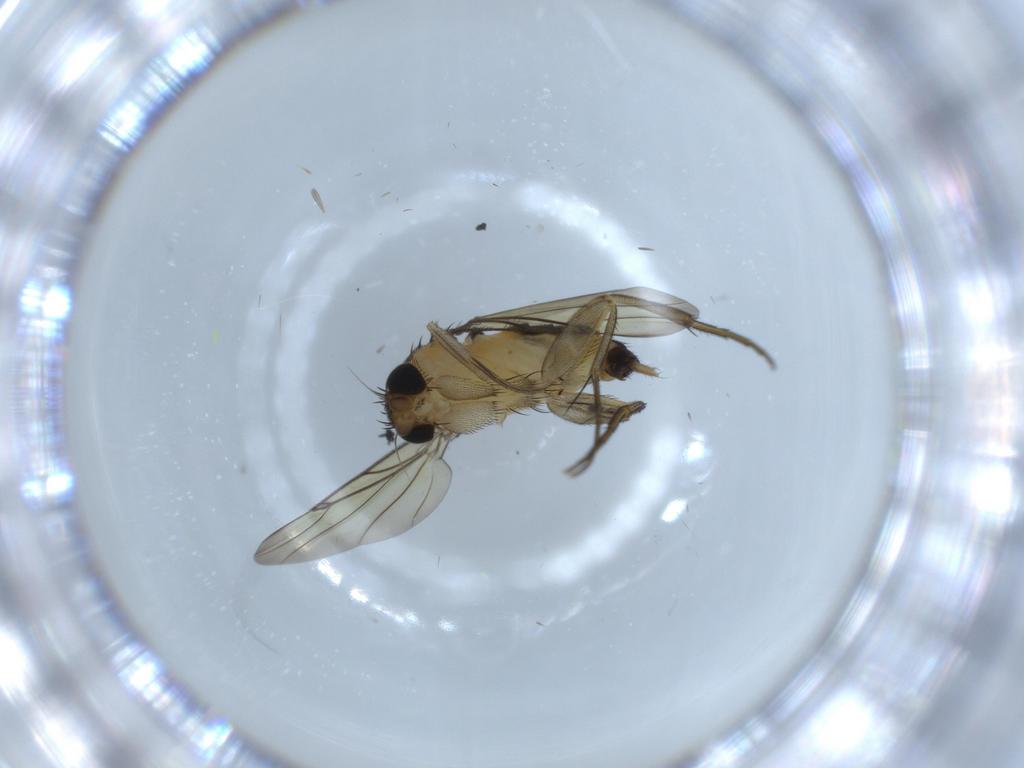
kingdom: Animalia
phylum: Arthropoda
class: Insecta
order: Diptera
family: Phoridae
